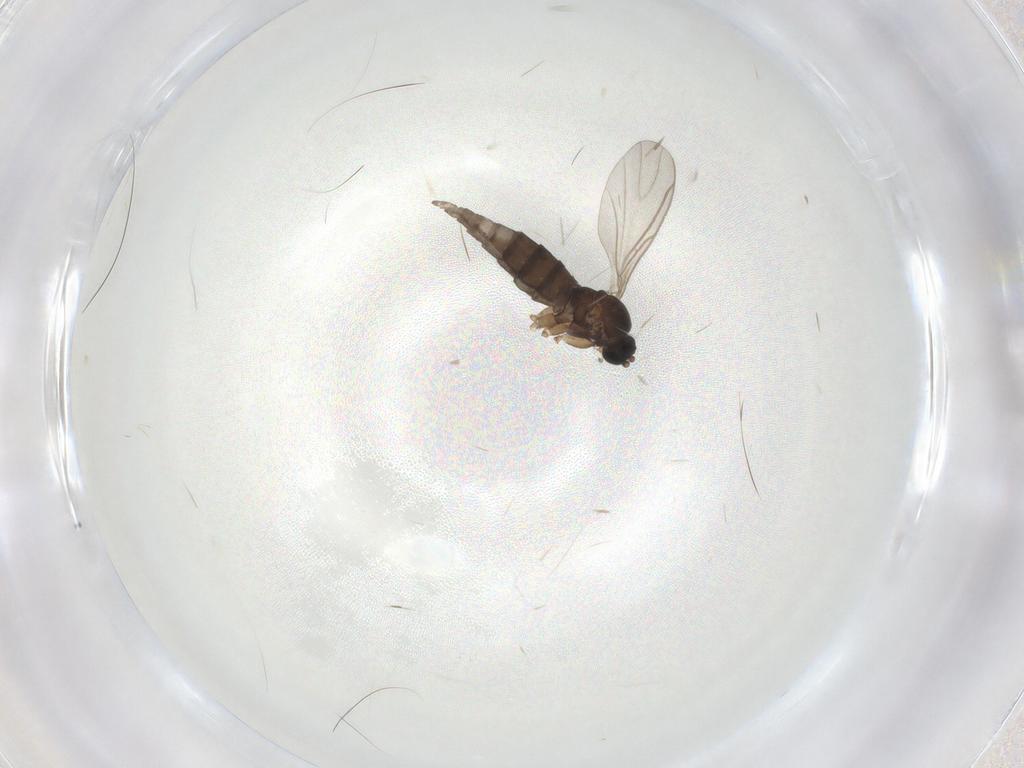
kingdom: Animalia
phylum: Arthropoda
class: Insecta
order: Diptera
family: Sciaridae
